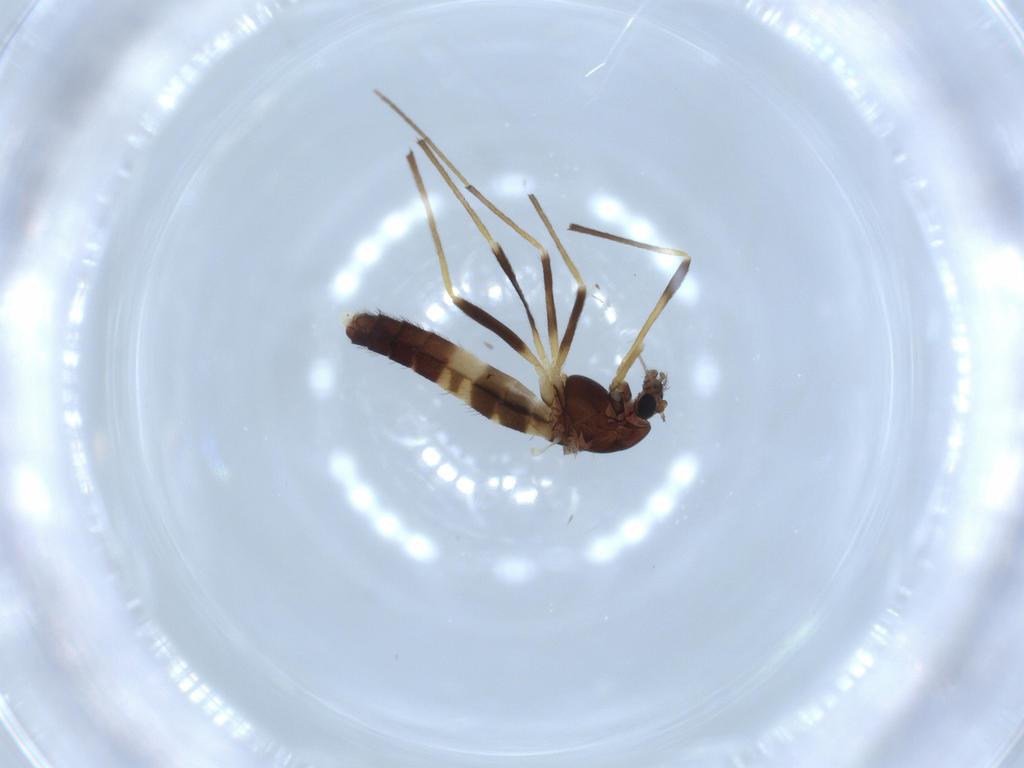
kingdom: Animalia
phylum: Arthropoda
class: Insecta
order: Diptera
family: Chironomidae
